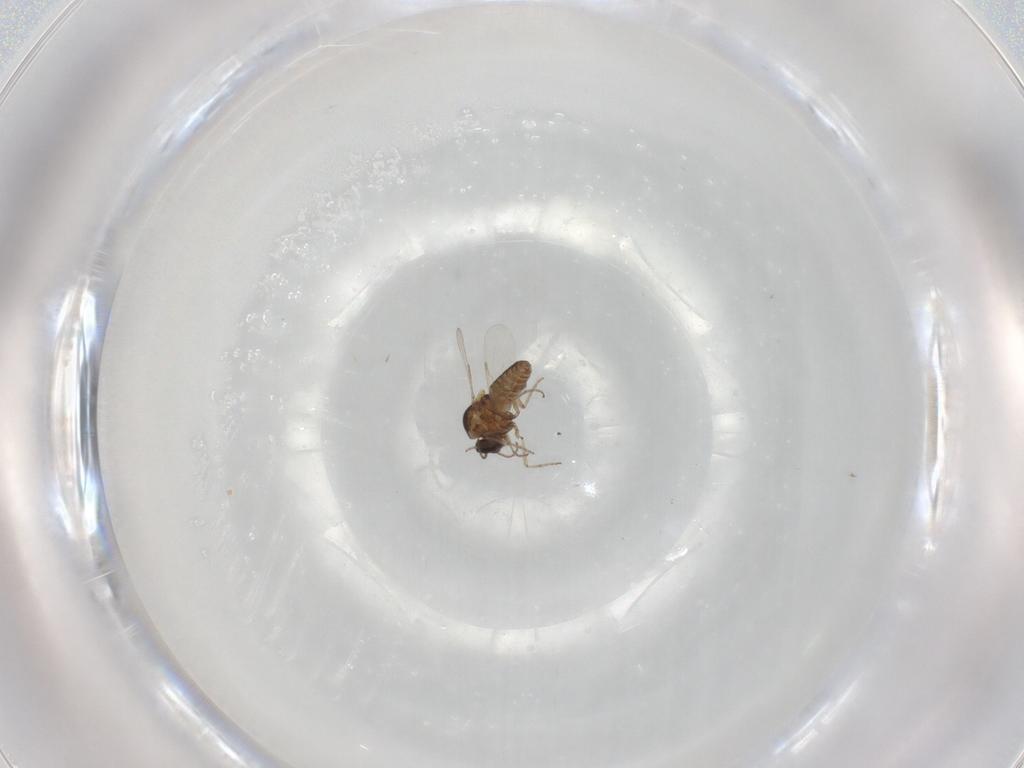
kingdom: Animalia
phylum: Arthropoda
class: Insecta
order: Diptera
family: Ceratopogonidae
